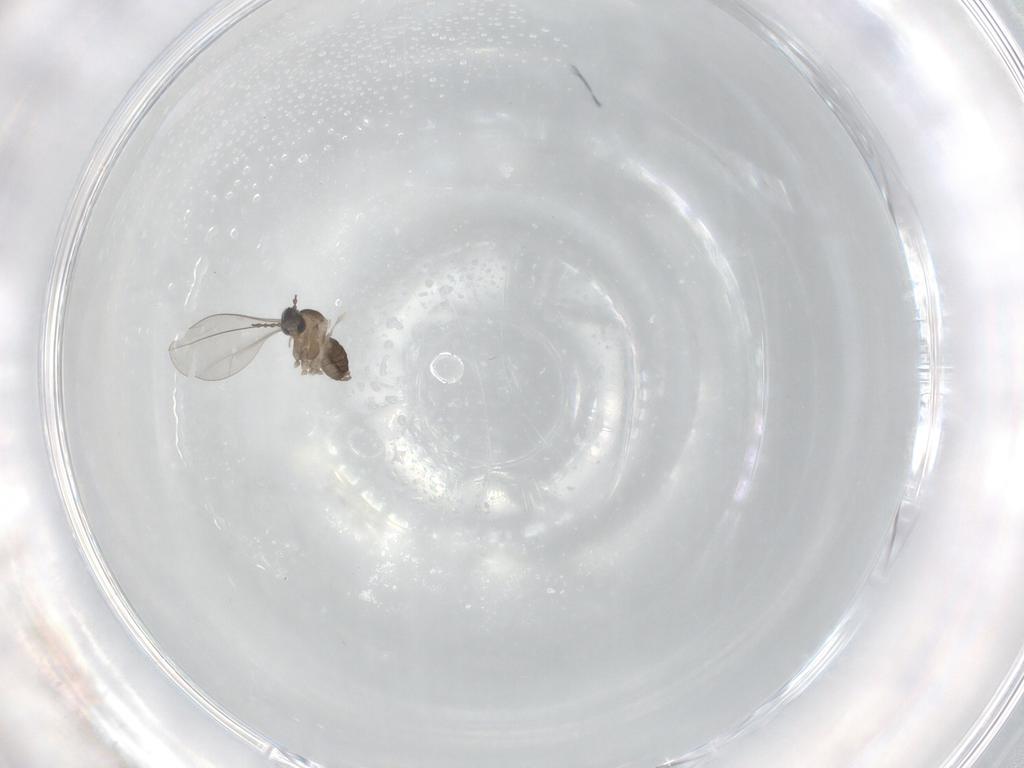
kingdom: Animalia
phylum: Arthropoda
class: Insecta
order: Diptera
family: Cecidomyiidae
